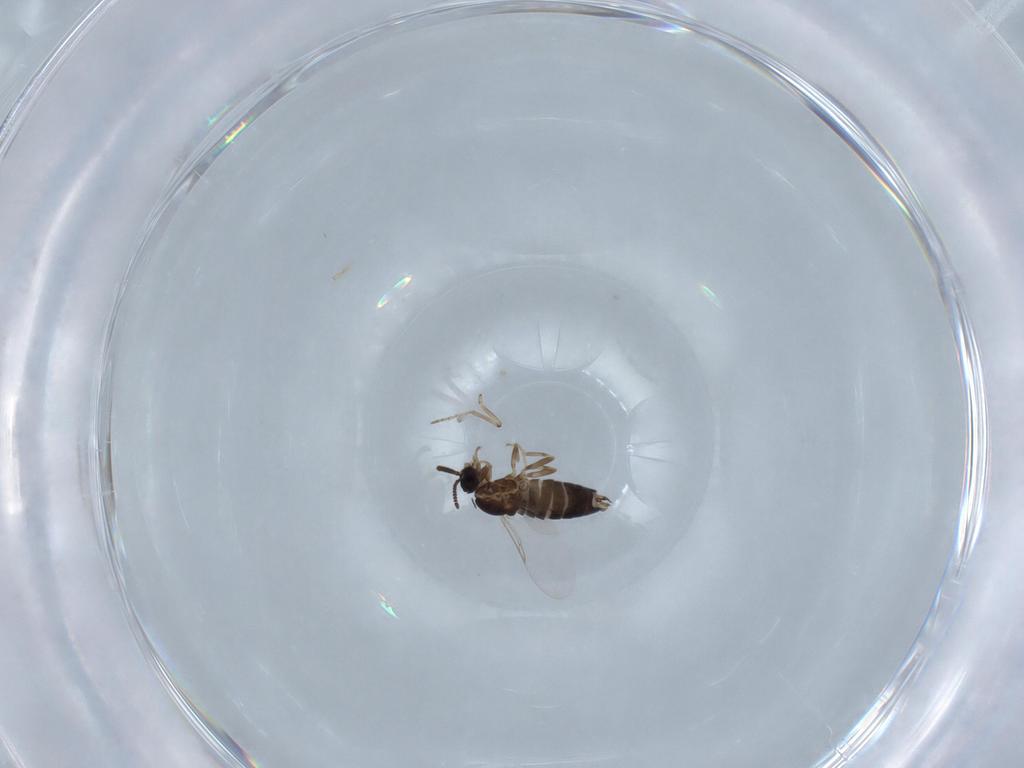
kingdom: Animalia
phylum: Arthropoda
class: Insecta
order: Diptera
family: Scatopsidae
